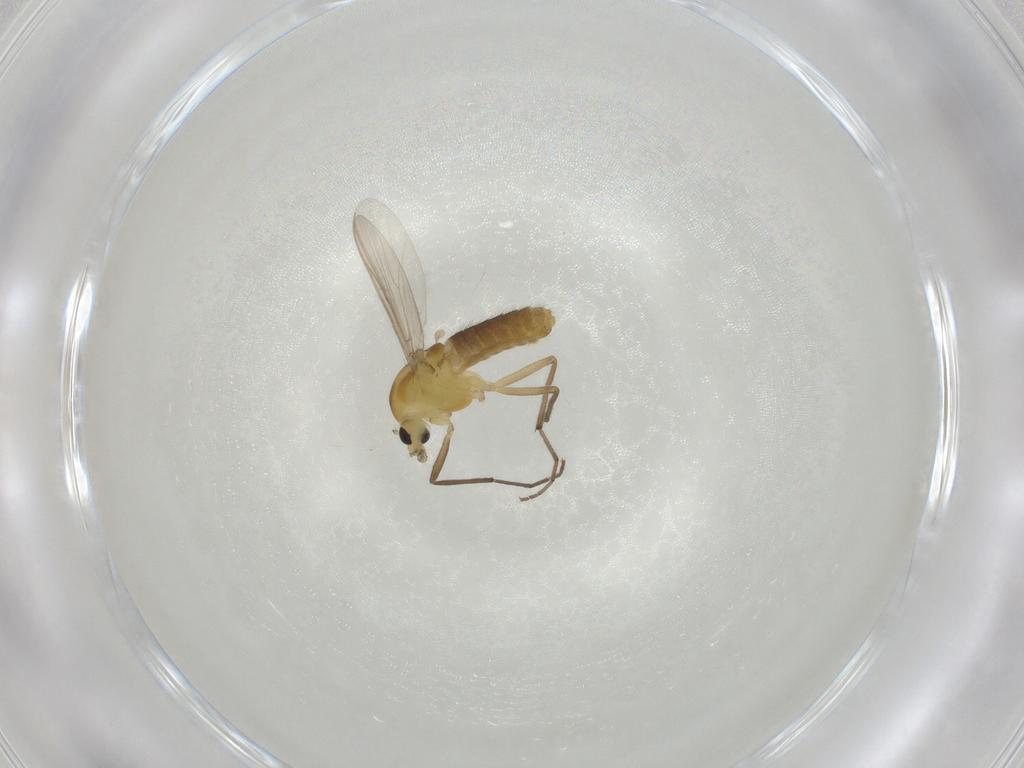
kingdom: Animalia
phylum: Arthropoda
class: Insecta
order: Diptera
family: Chironomidae
